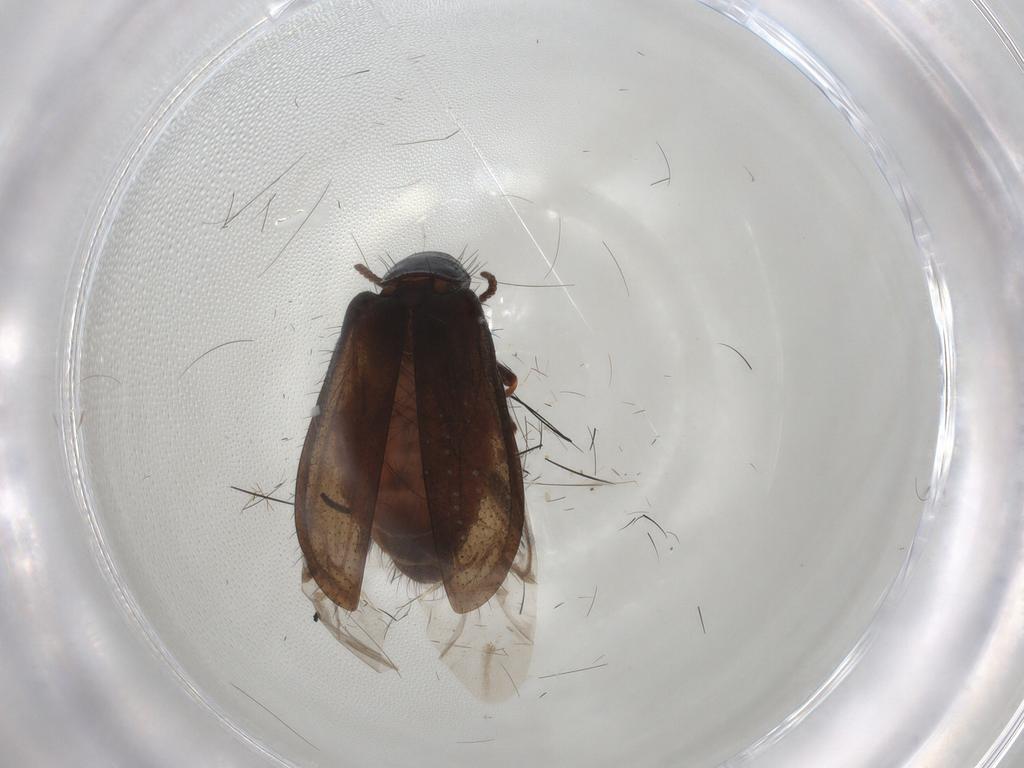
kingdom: Animalia
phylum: Arthropoda
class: Insecta
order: Coleoptera
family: Melyridae
